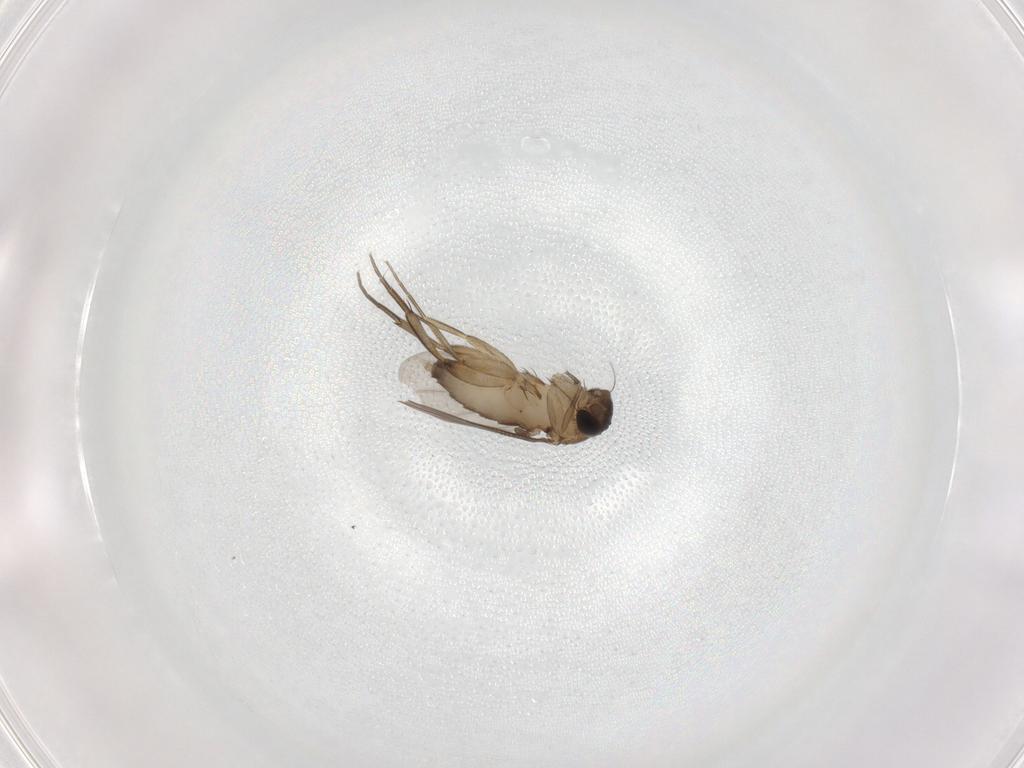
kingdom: Animalia
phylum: Arthropoda
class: Insecta
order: Diptera
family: Phoridae
